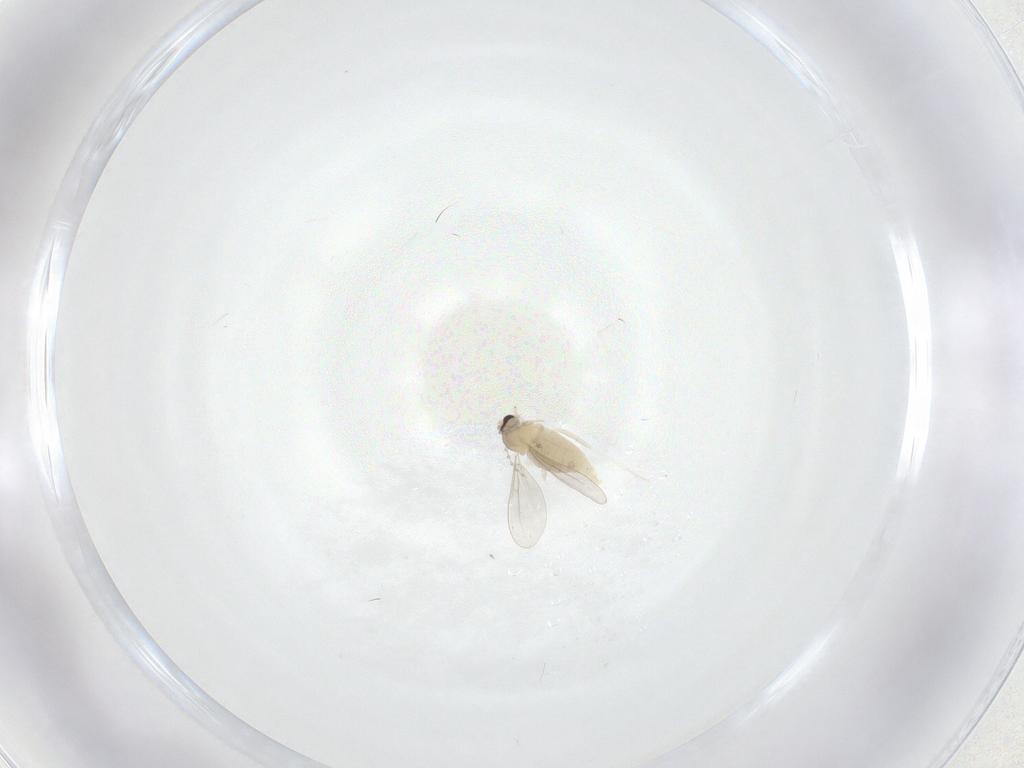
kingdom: Animalia
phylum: Arthropoda
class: Insecta
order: Diptera
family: Cecidomyiidae
